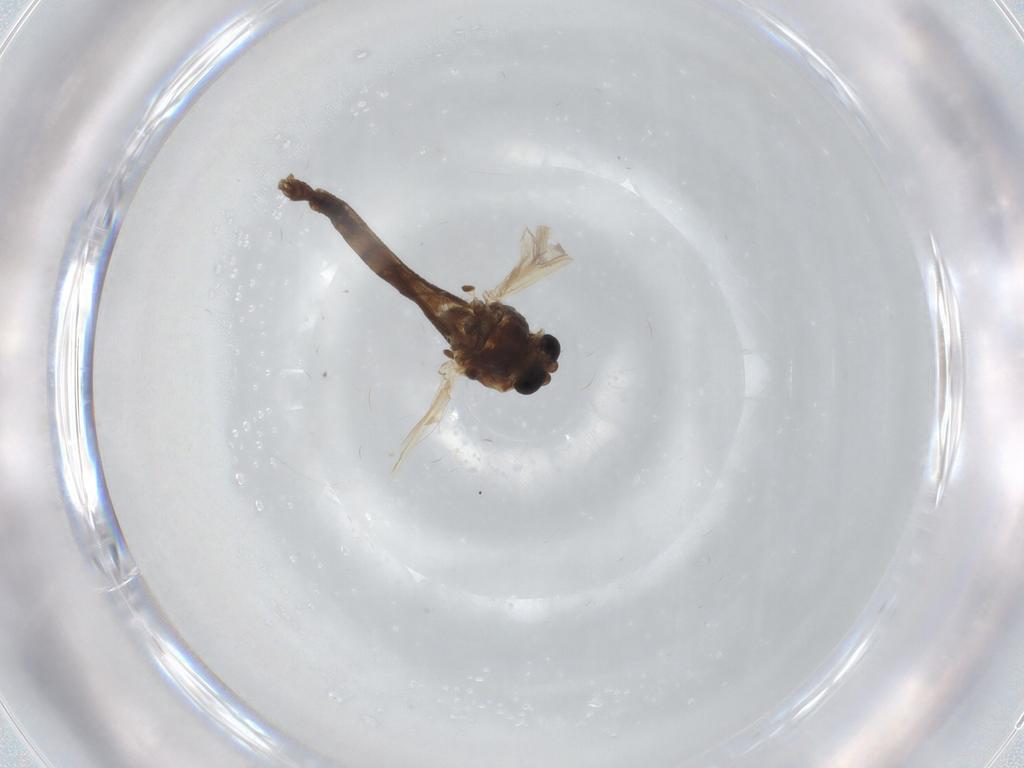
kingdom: Animalia
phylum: Arthropoda
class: Insecta
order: Diptera
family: Chironomidae
